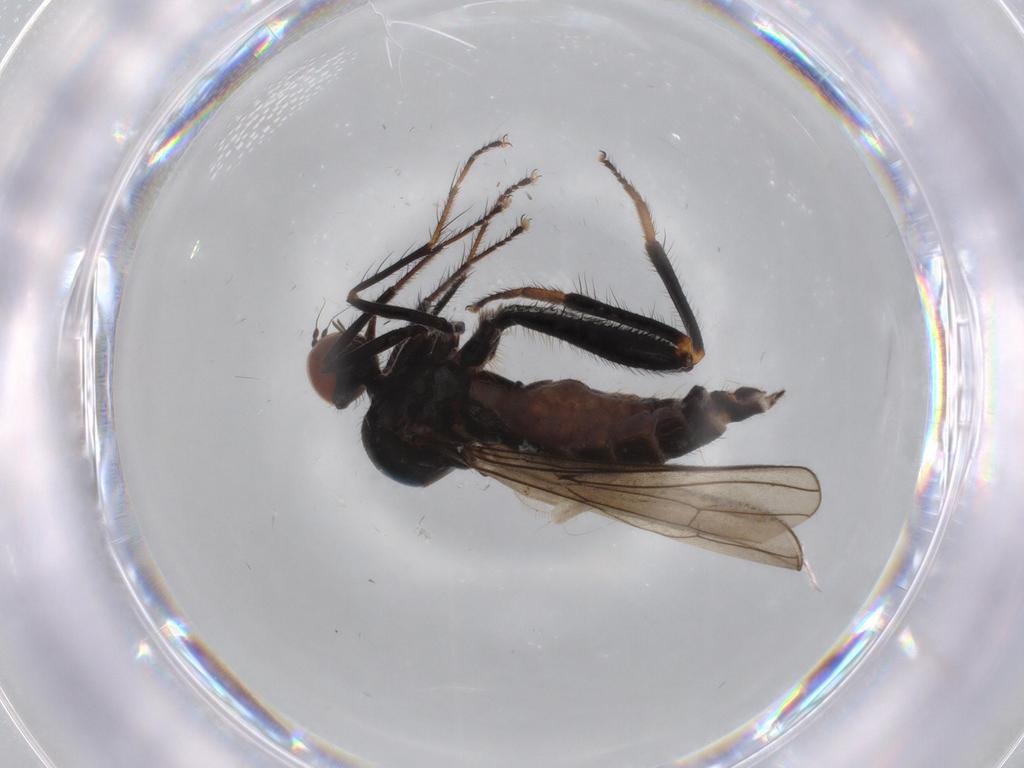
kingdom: Animalia
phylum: Arthropoda
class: Insecta
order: Diptera
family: Hybotidae
